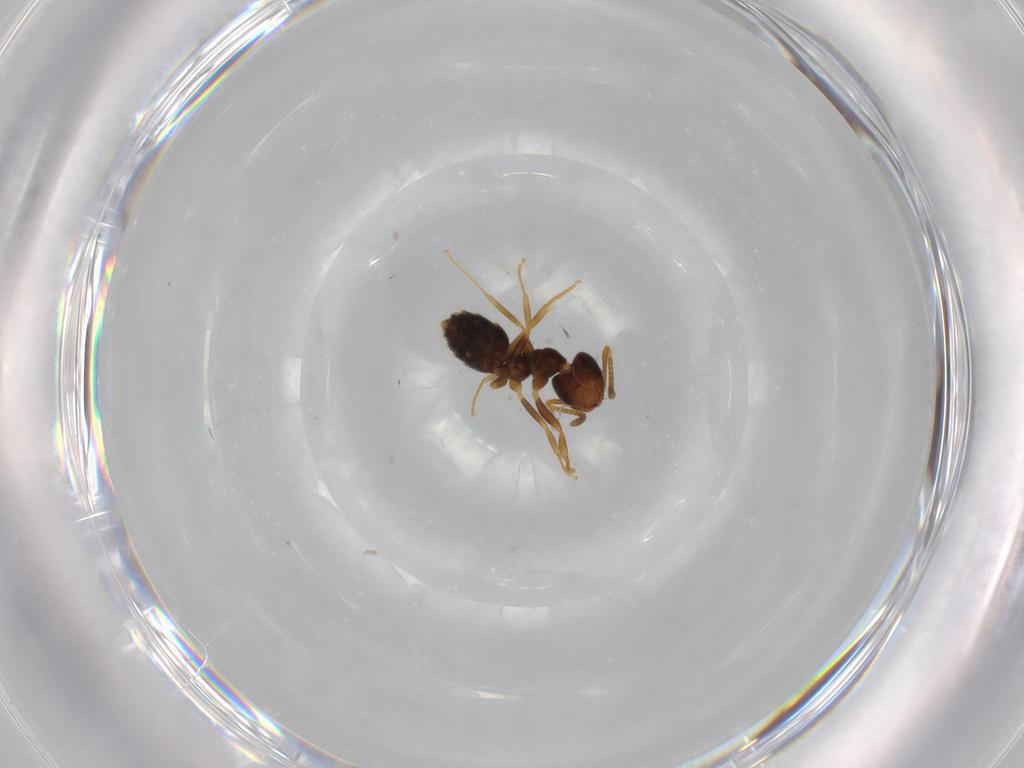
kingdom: Animalia
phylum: Arthropoda
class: Insecta
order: Hymenoptera
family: Formicidae
